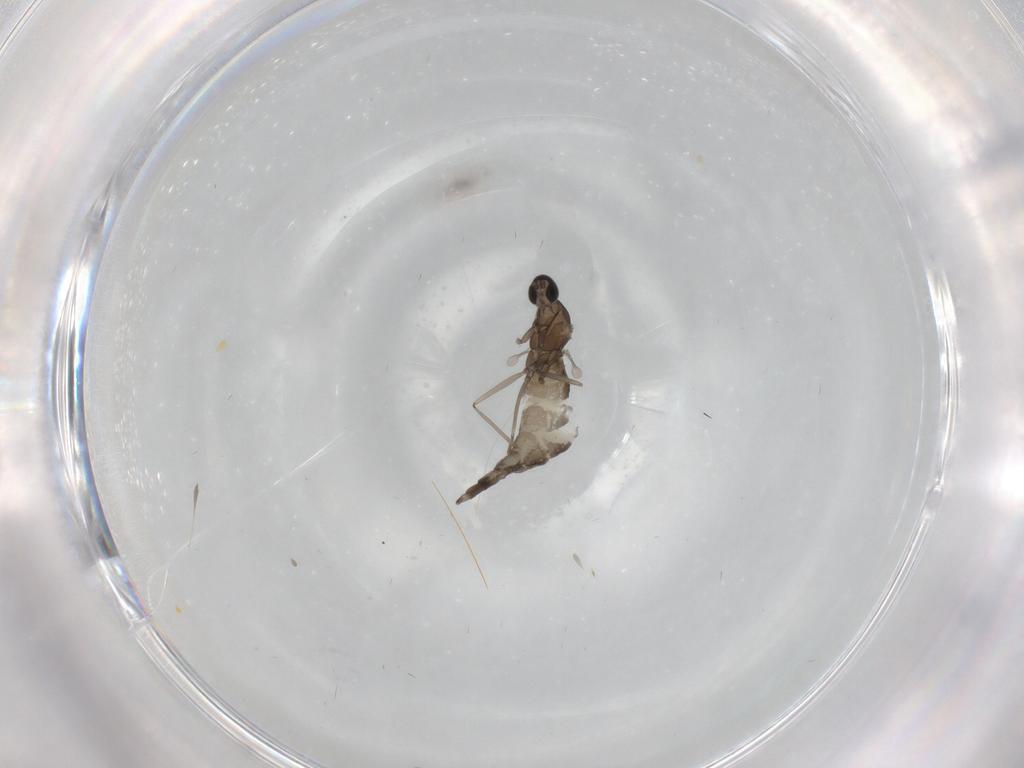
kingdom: Animalia
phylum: Arthropoda
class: Insecta
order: Diptera
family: Cecidomyiidae
